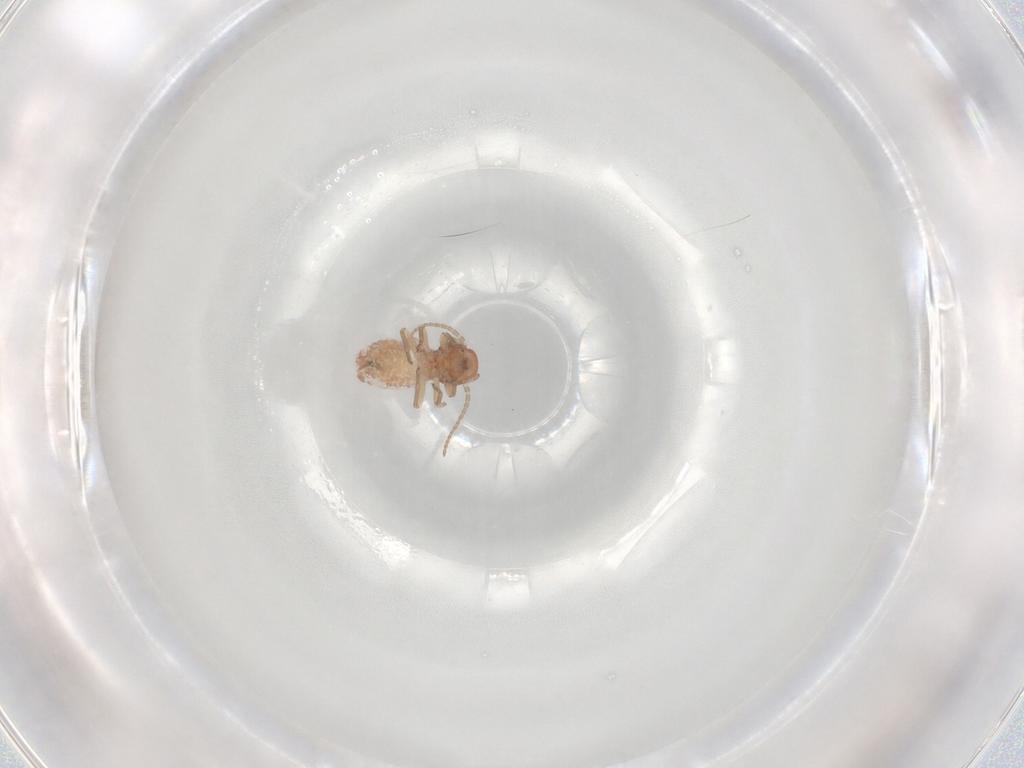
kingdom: Animalia
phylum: Arthropoda
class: Insecta
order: Psocodea
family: Caeciliusidae
